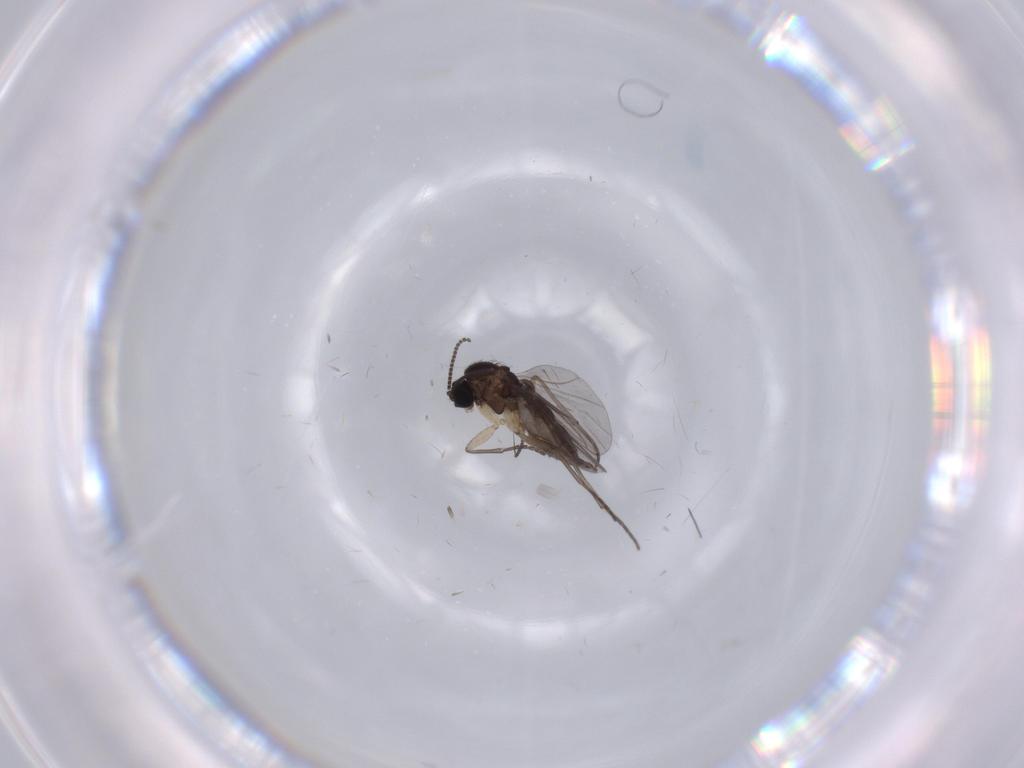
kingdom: Animalia
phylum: Arthropoda
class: Insecta
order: Diptera
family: Sciaridae
